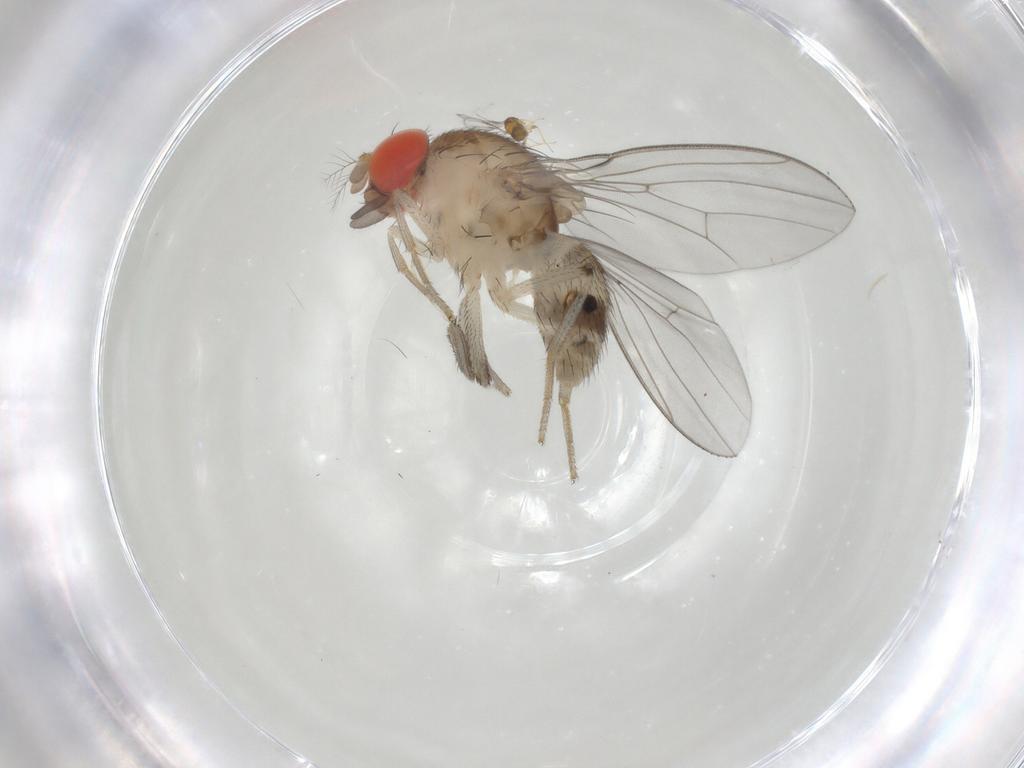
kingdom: Animalia
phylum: Arthropoda
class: Insecta
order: Diptera
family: Drosophilidae
